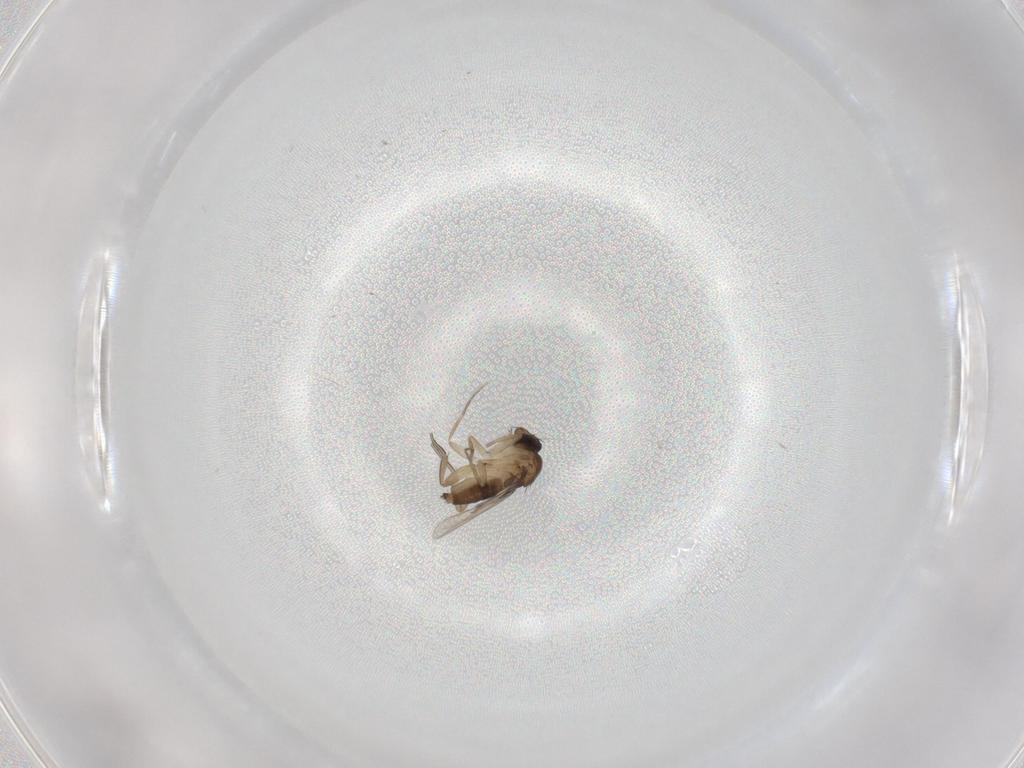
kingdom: Animalia
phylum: Arthropoda
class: Insecta
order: Diptera
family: Phoridae
